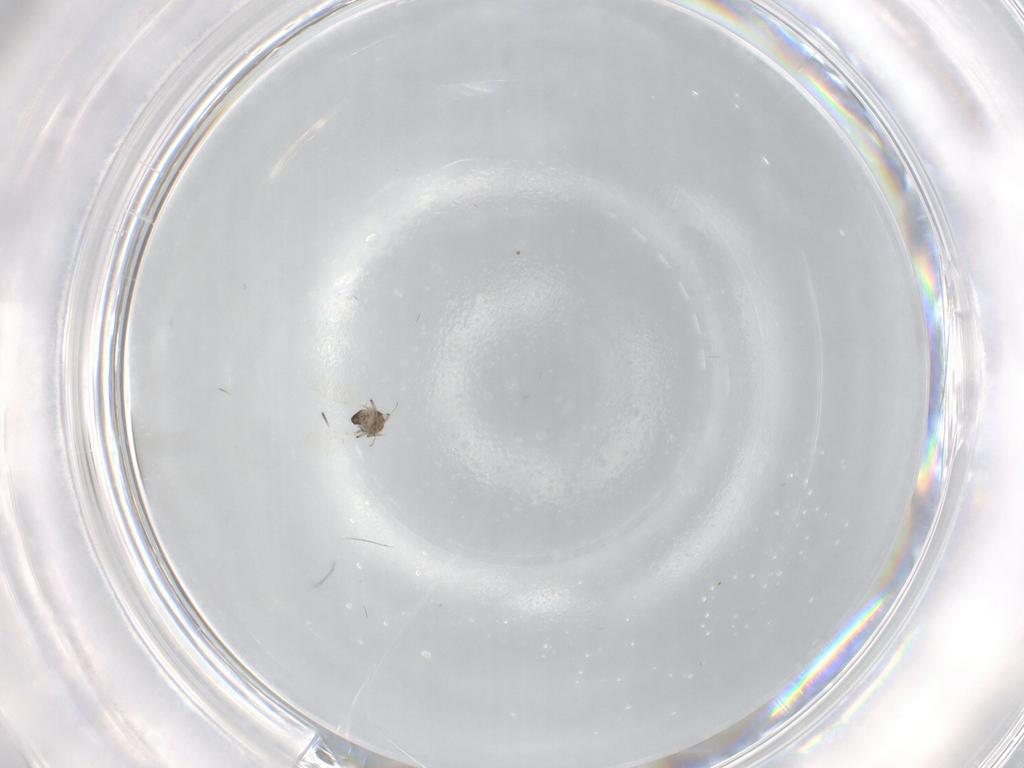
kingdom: Animalia
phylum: Arthropoda
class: Insecta
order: Diptera
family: Ceratopogonidae
